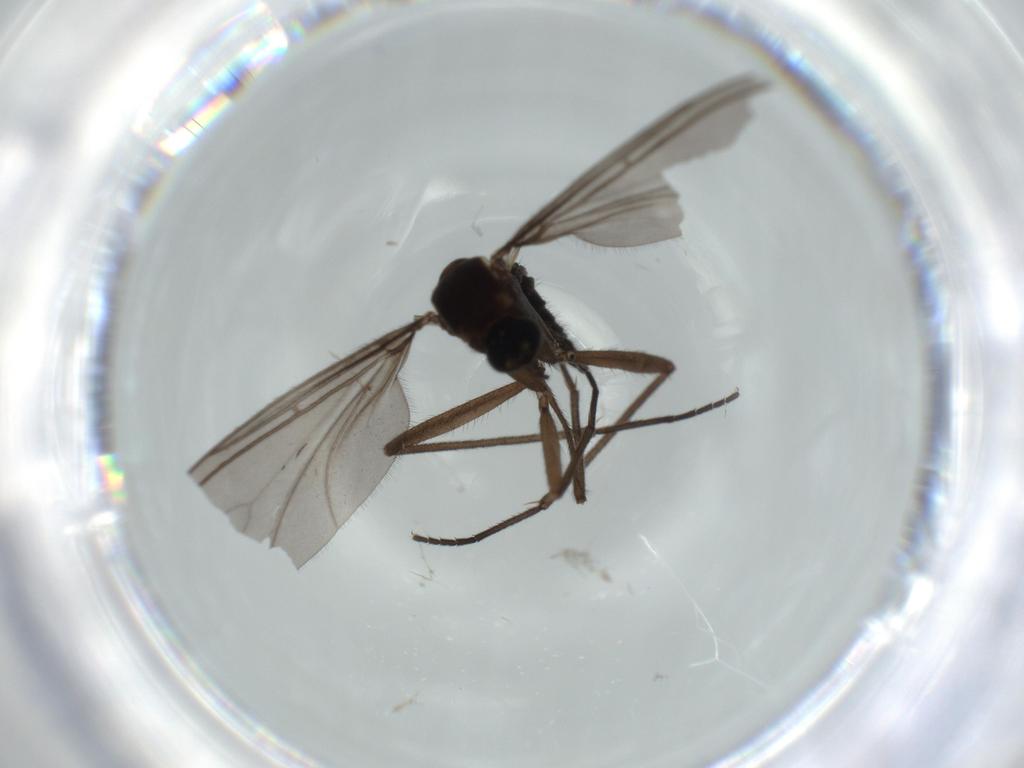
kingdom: Animalia
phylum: Arthropoda
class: Insecta
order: Diptera
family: Sciaridae
